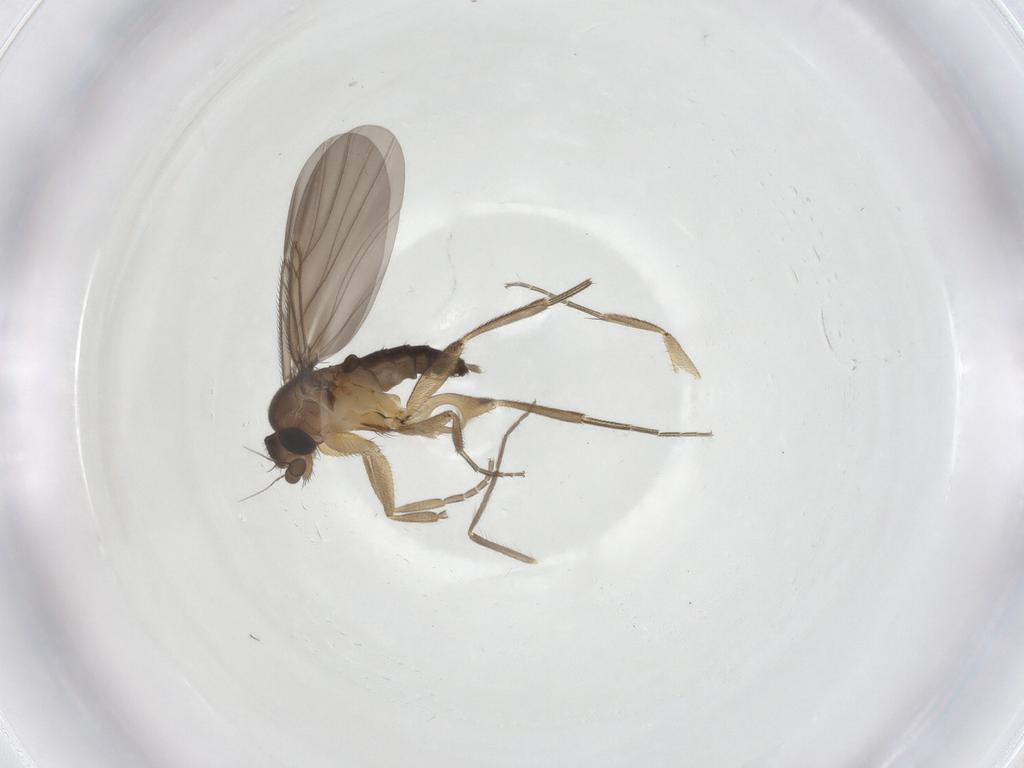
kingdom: Animalia
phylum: Arthropoda
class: Insecta
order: Diptera
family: Chironomidae
